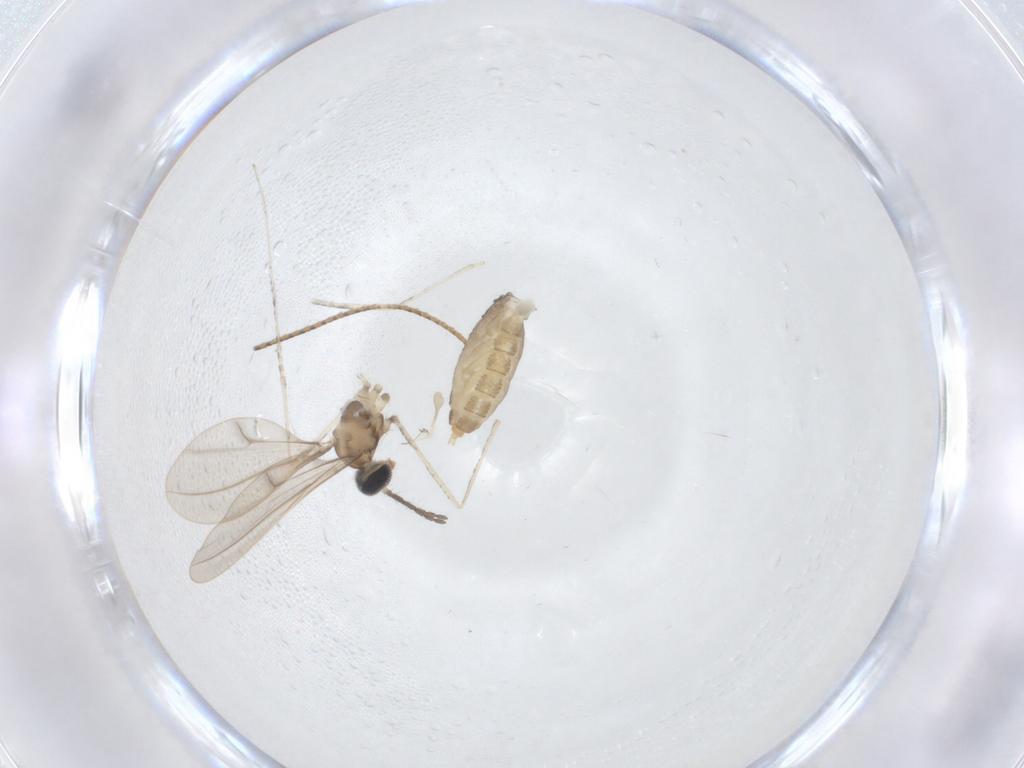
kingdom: Animalia
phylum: Arthropoda
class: Insecta
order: Diptera
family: Cecidomyiidae
